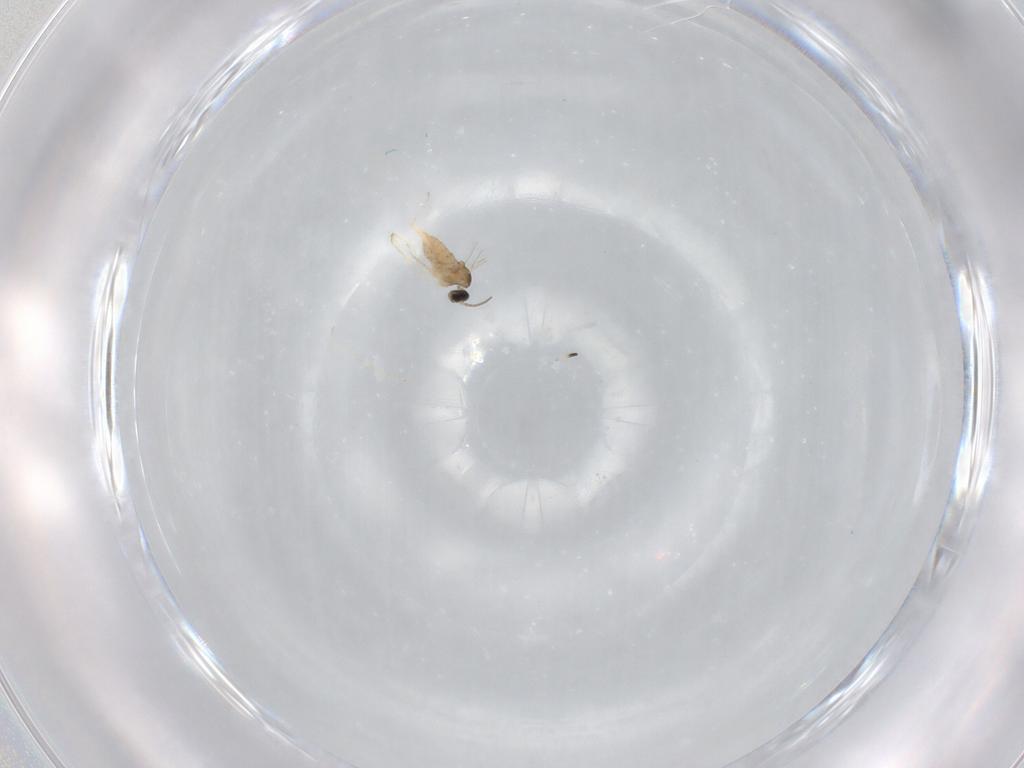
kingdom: Animalia
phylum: Arthropoda
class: Insecta
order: Diptera
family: Cecidomyiidae
